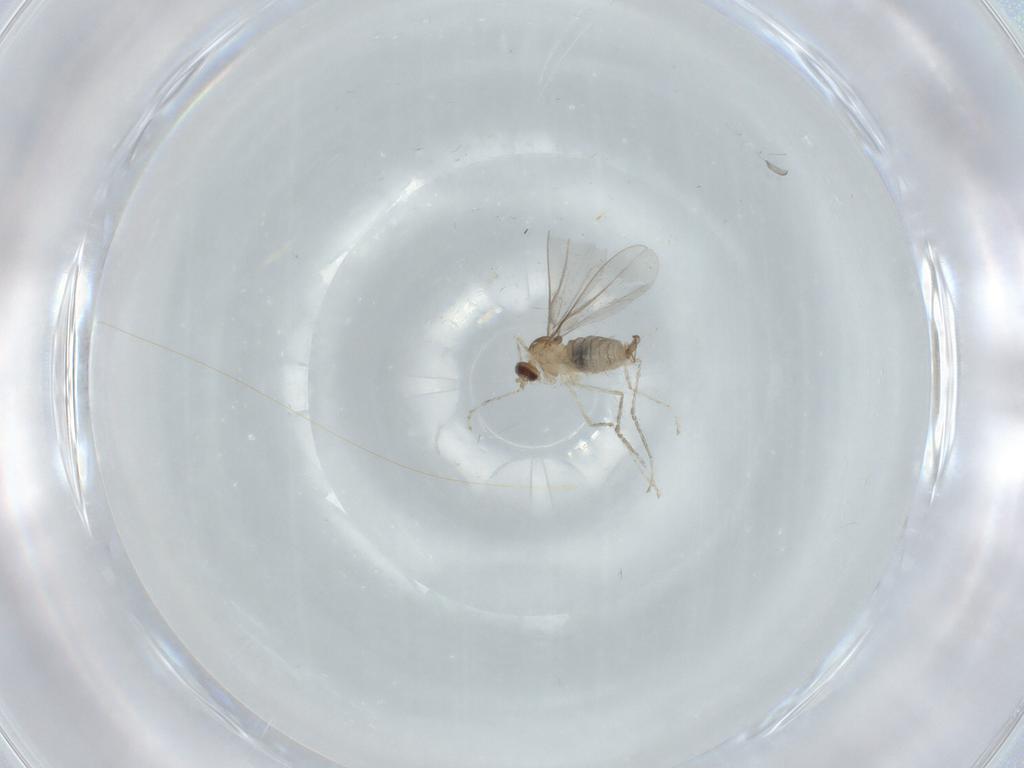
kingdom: Animalia
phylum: Arthropoda
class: Insecta
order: Diptera
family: Cecidomyiidae
